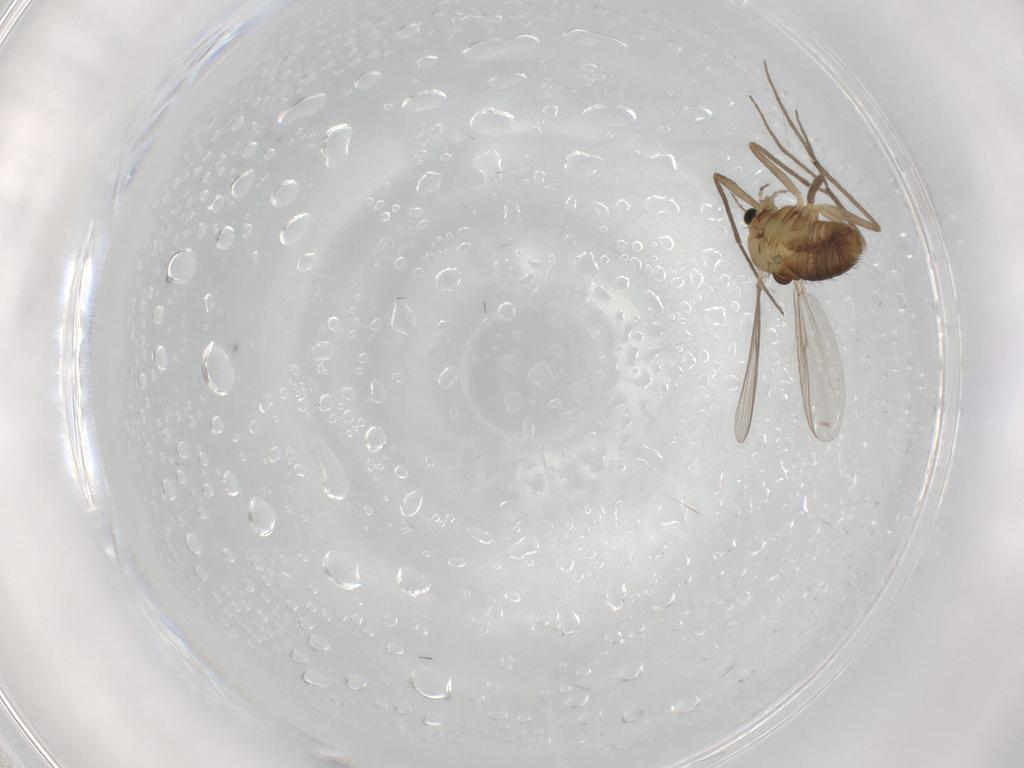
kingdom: Animalia
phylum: Arthropoda
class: Insecta
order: Diptera
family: Chironomidae
